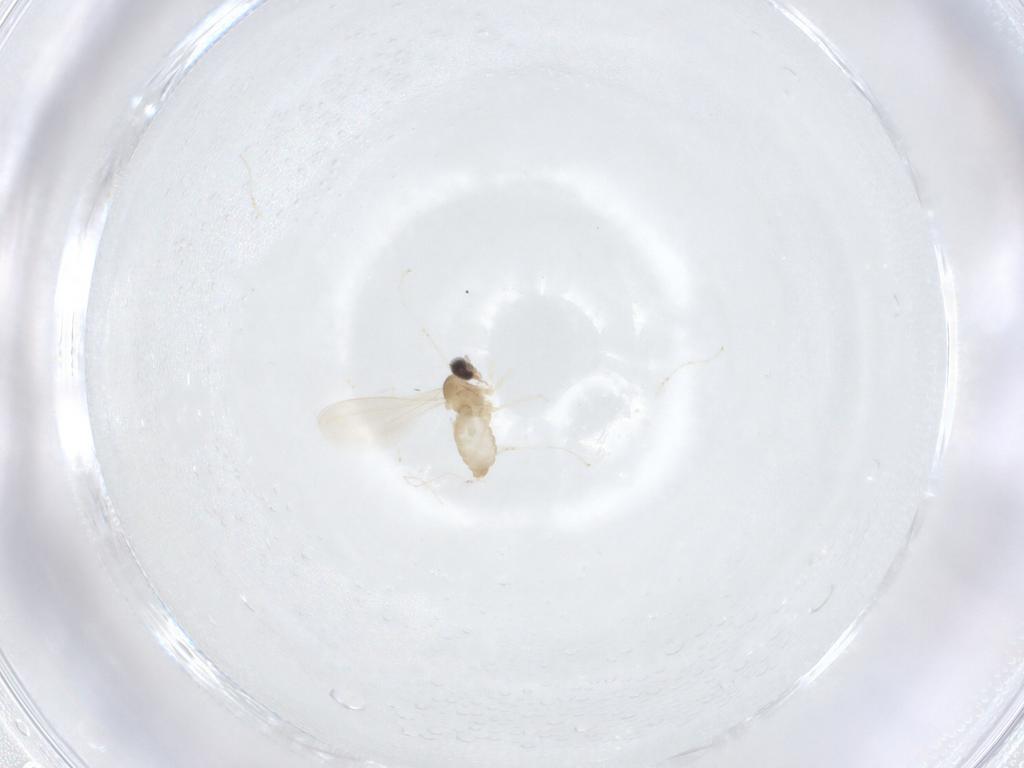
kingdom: Animalia
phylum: Arthropoda
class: Insecta
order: Diptera
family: Cecidomyiidae
